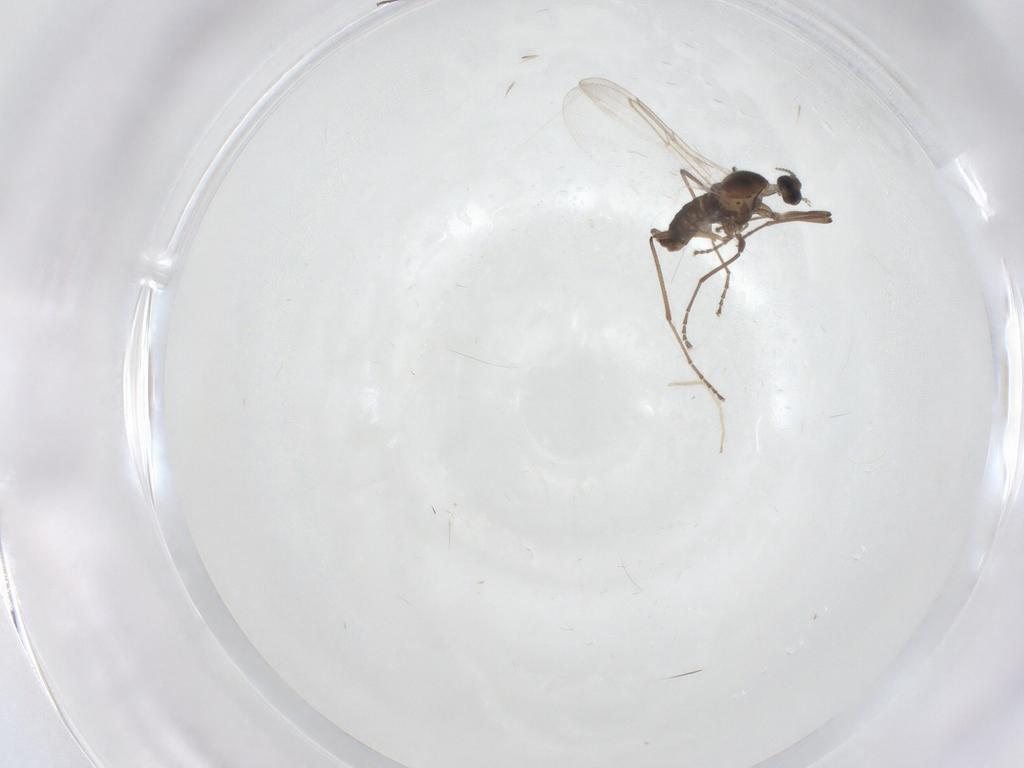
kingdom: Animalia
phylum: Arthropoda
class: Insecta
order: Diptera
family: Cecidomyiidae
